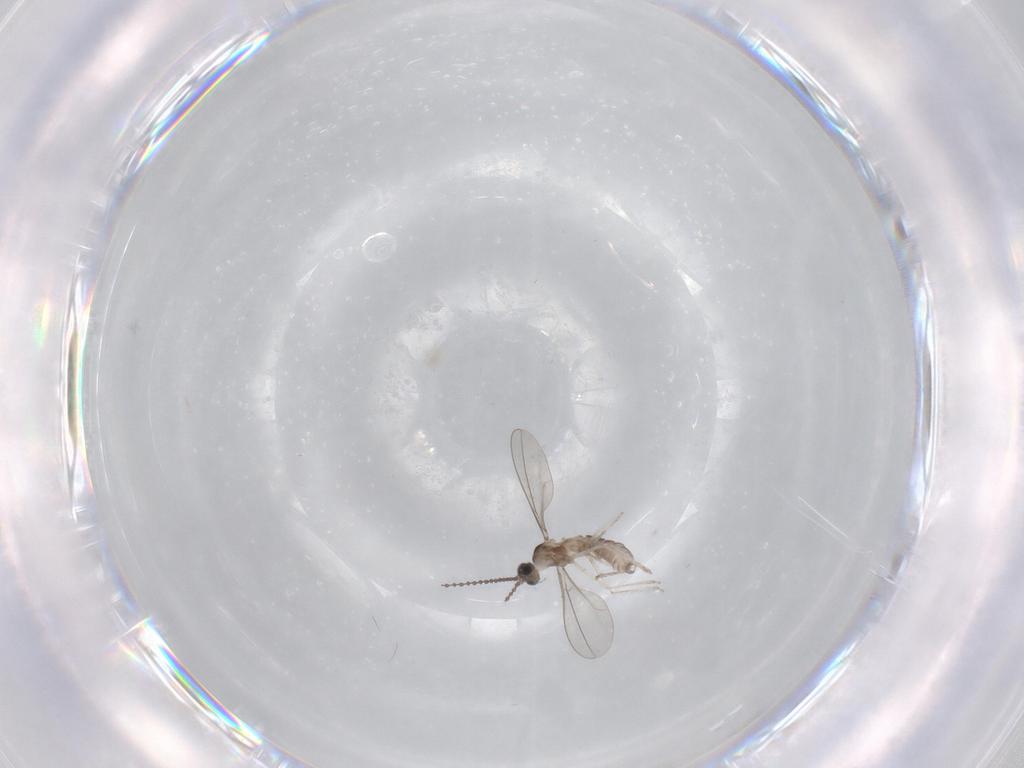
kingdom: Animalia
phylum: Arthropoda
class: Insecta
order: Diptera
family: Cecidomyiidae
